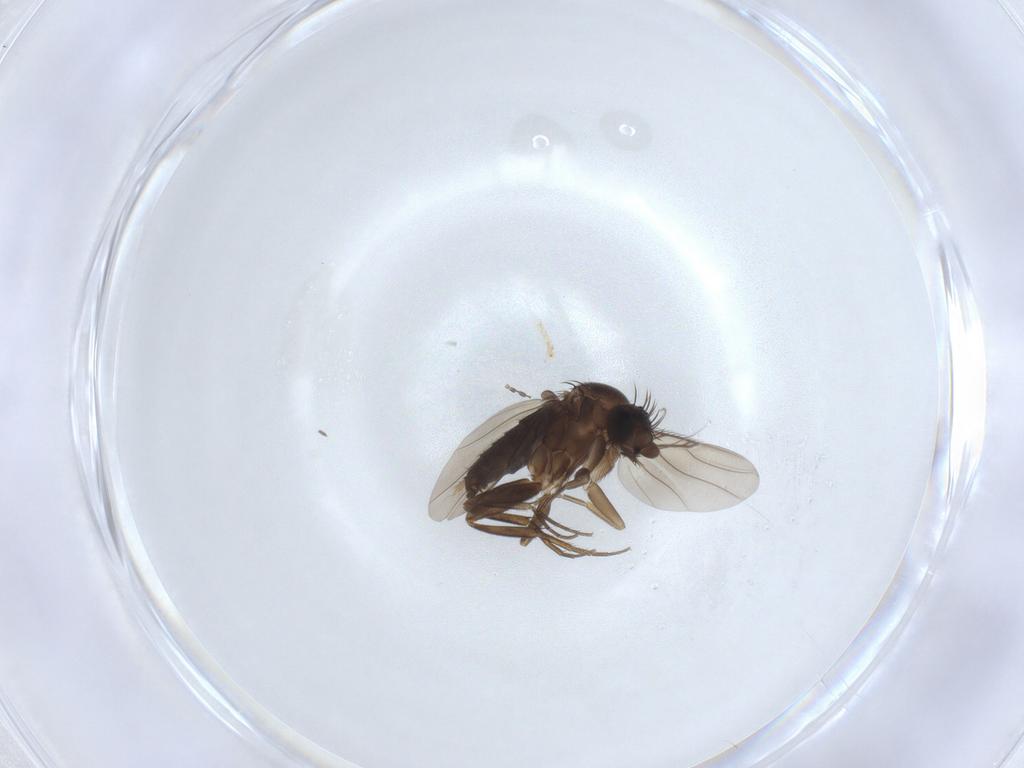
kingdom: Animalia
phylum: Arthropoda
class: Insecta
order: Diptera
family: Phoridae
